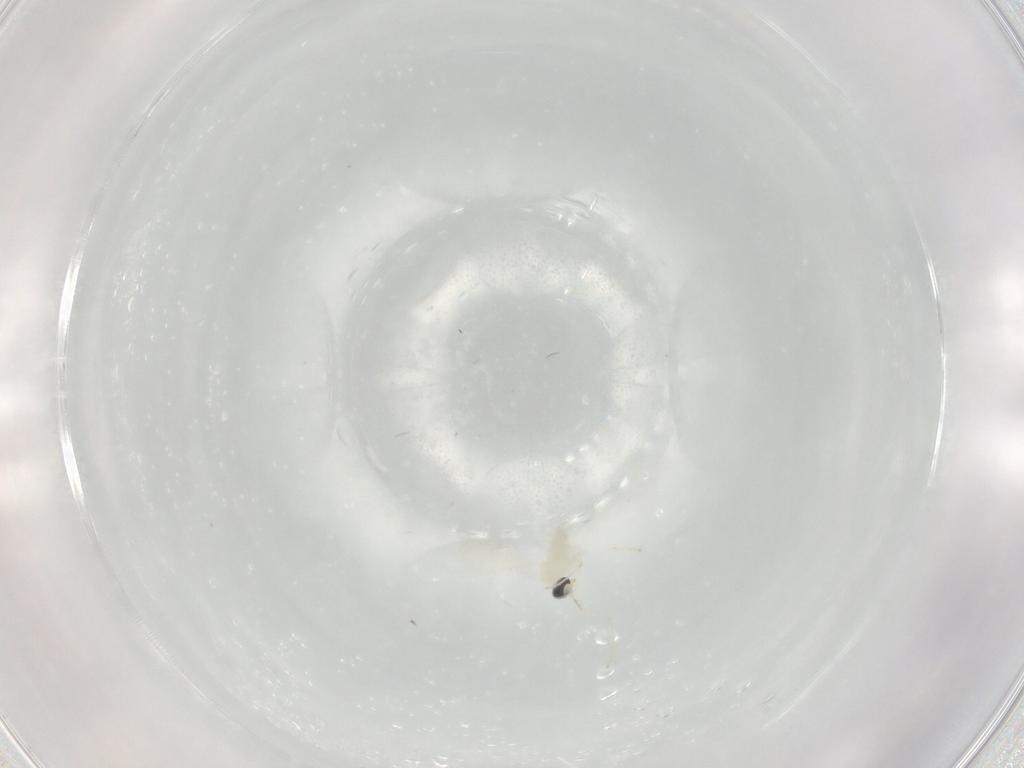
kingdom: Animalia
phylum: Arthropoda
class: Insecta
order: Diptera
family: Cecidomyiidae
